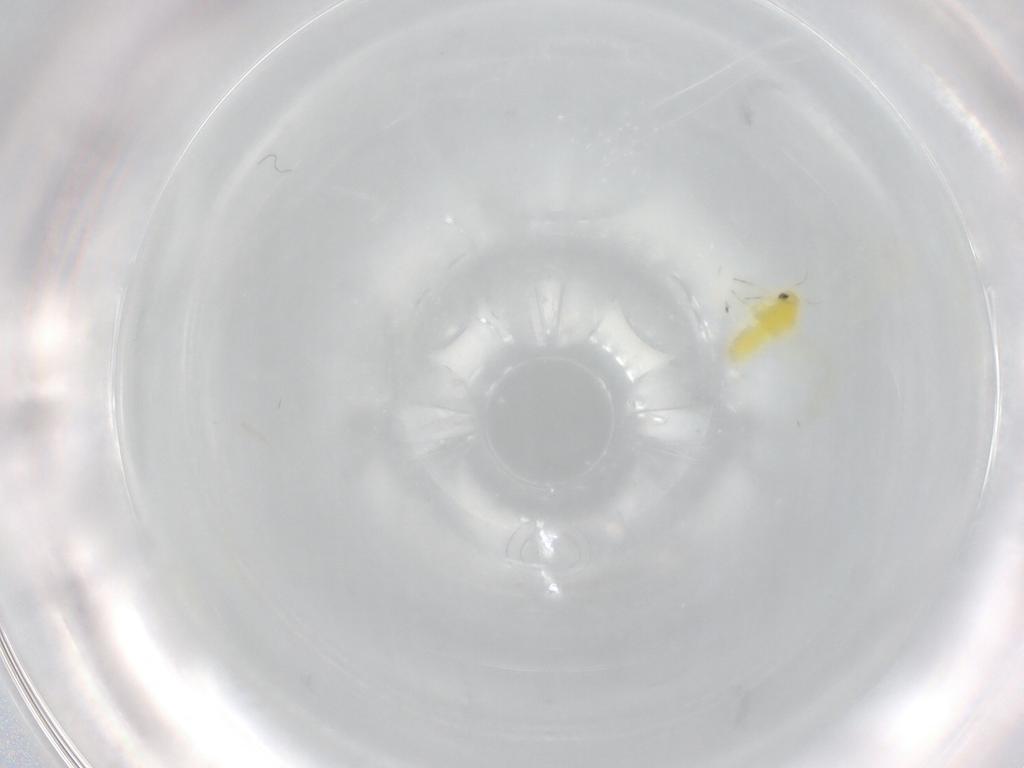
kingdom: Animalia
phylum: Arthropoda
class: Insecta
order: Hemiptera
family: Aleyrodidae
